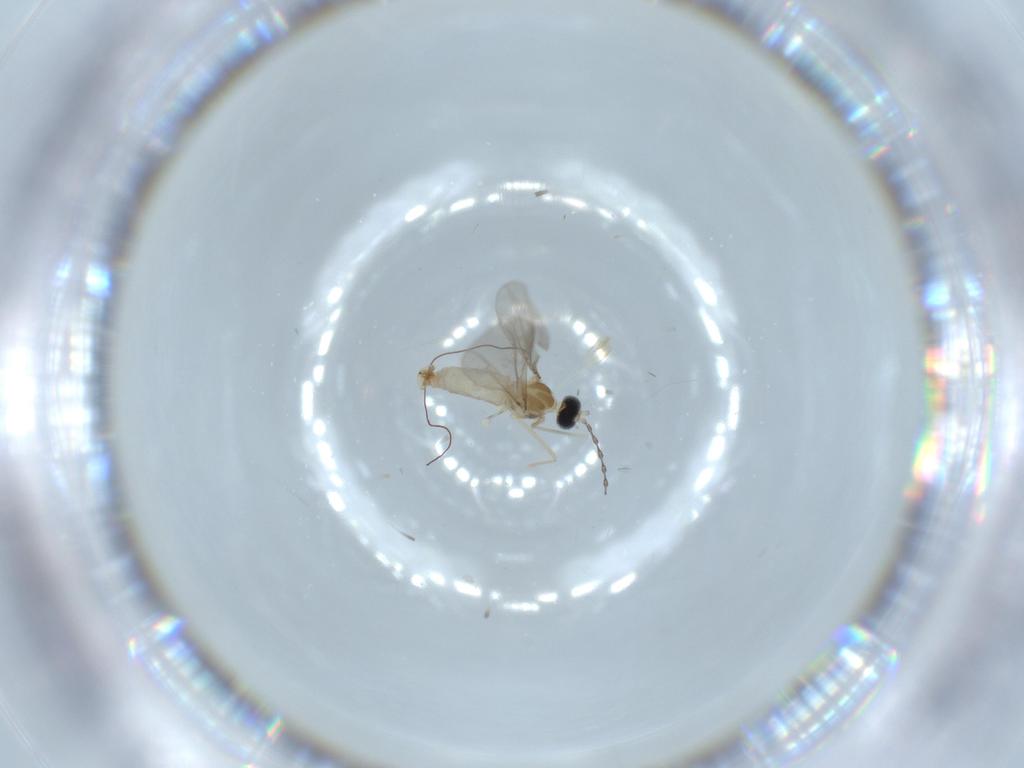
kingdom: Animalia
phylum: Arthropoda
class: Insecta
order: Diptera
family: Cecidomyiidae
